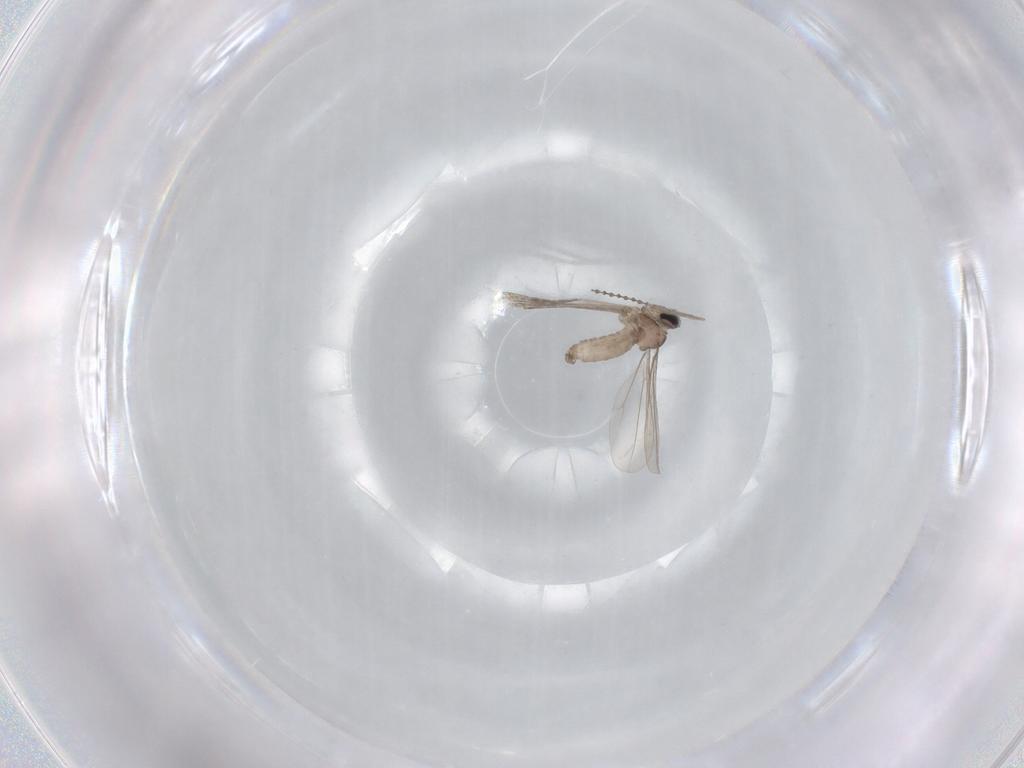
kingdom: Animalia
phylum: Arthropoda
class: Insecta
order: Diptera
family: Cecidomyiidae
